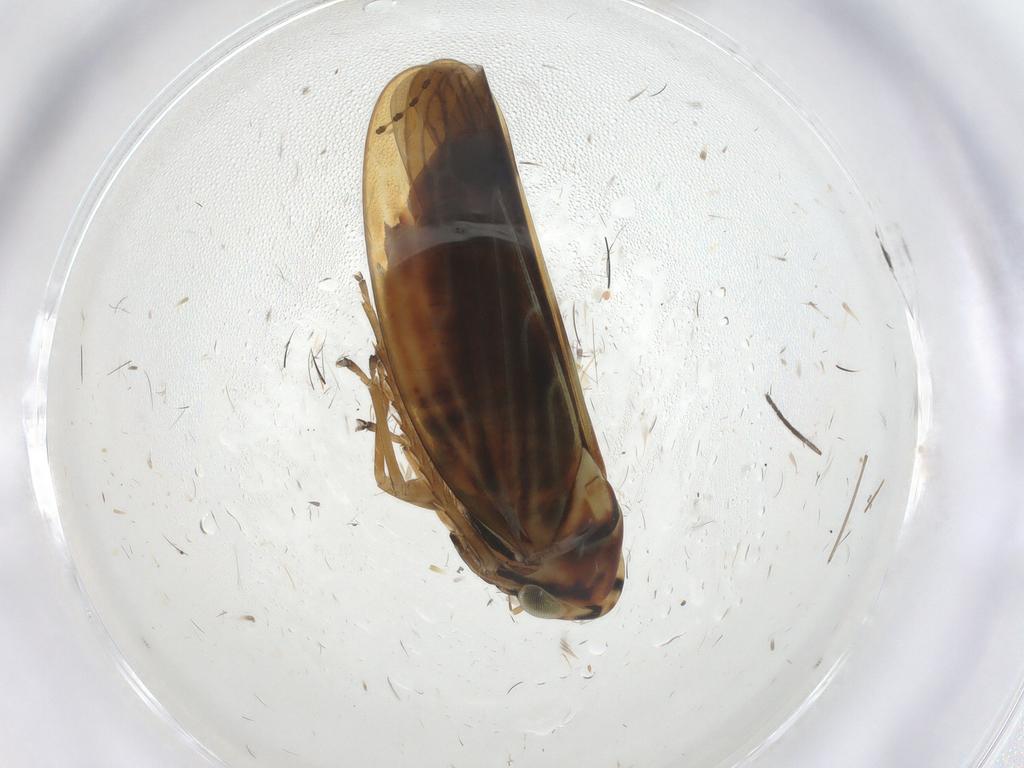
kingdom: Animalia
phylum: Arthropoda
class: Insecta
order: Hemiptera
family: Cicadellidae
